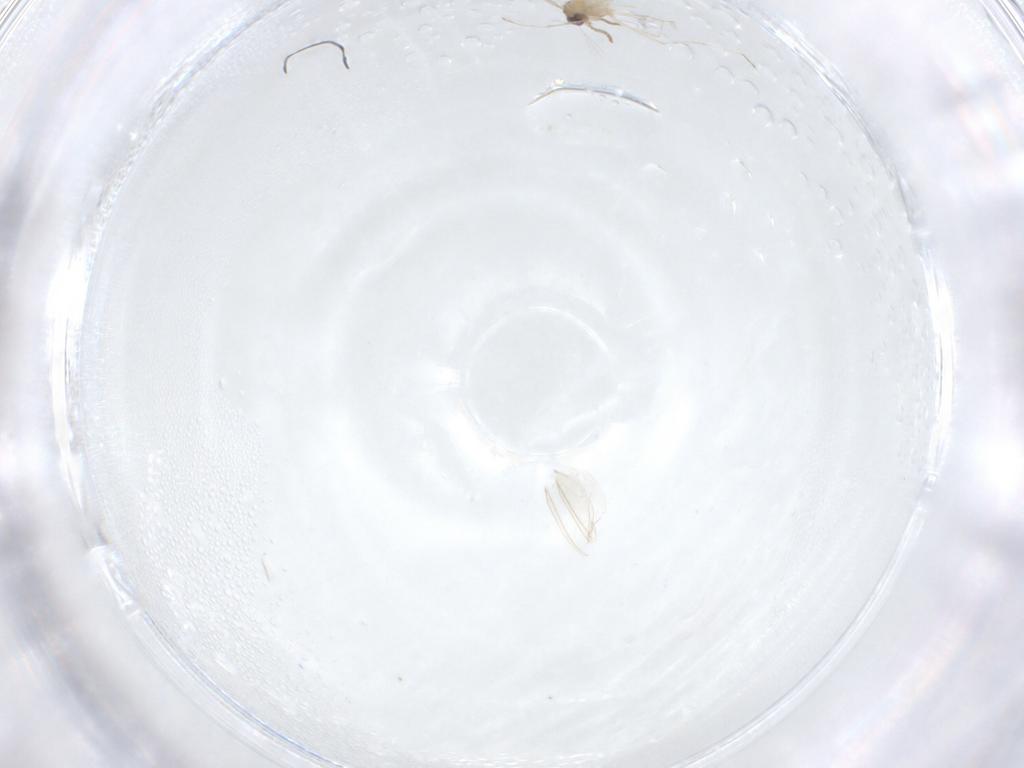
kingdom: Animalia
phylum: Arthropoda
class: Insecta
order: Diptera
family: Cecidomyiidae
